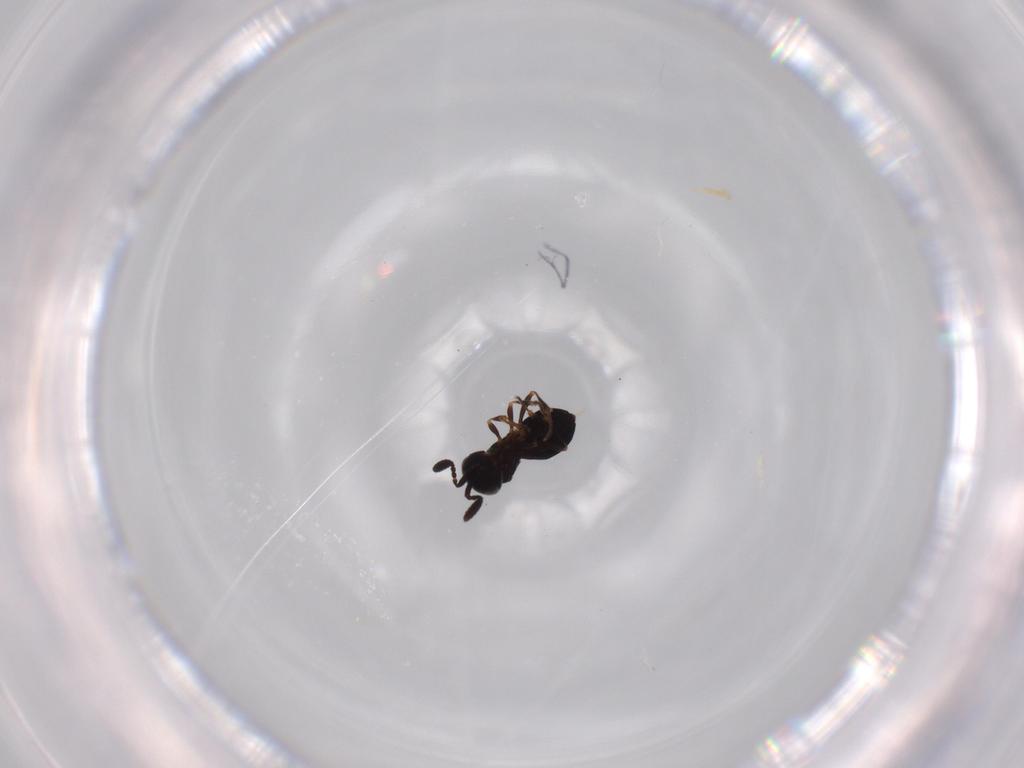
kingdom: Animalia
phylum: Arthropoda
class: Insecta
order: Hymenoptera
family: Scelionidae
